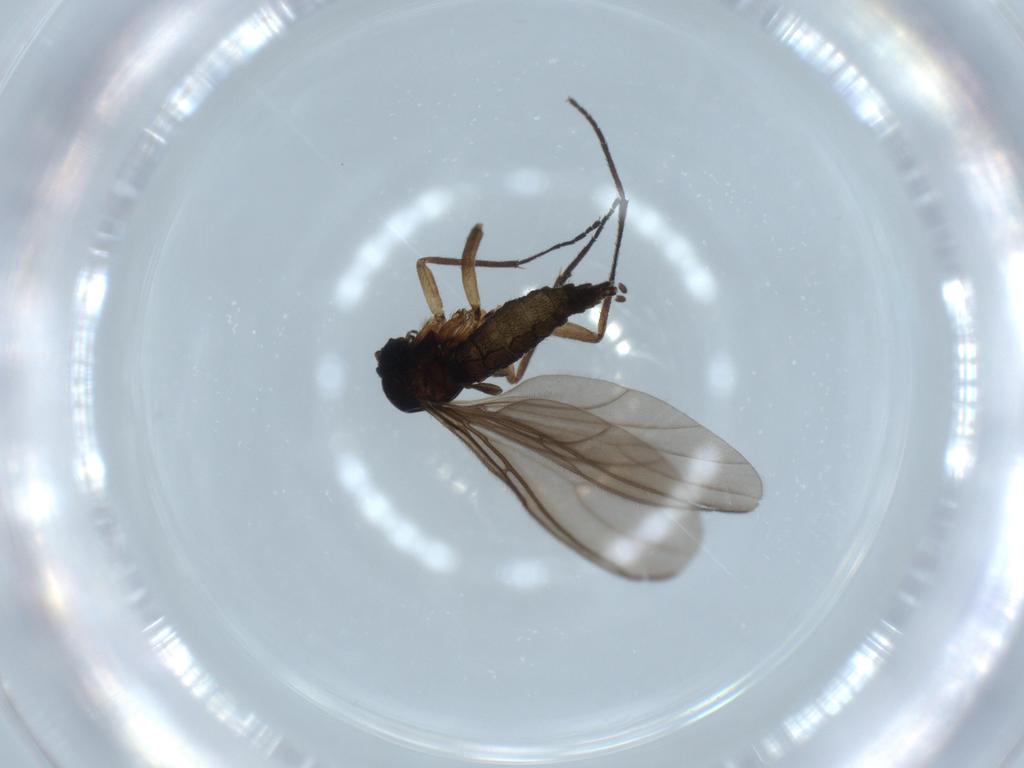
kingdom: Animalia
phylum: Arthropoda
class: Insecta
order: Diptera
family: Sciaridae
